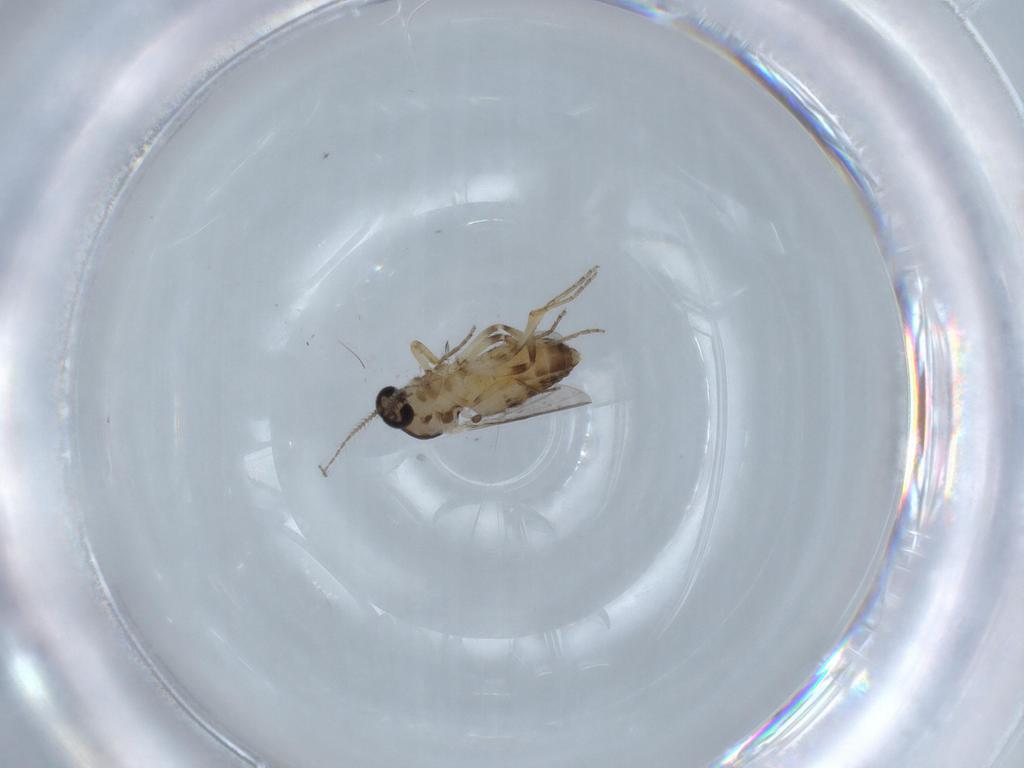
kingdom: Animalia
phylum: Arthropoda
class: Insecta
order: Diptera
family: Ceratopogonidae
